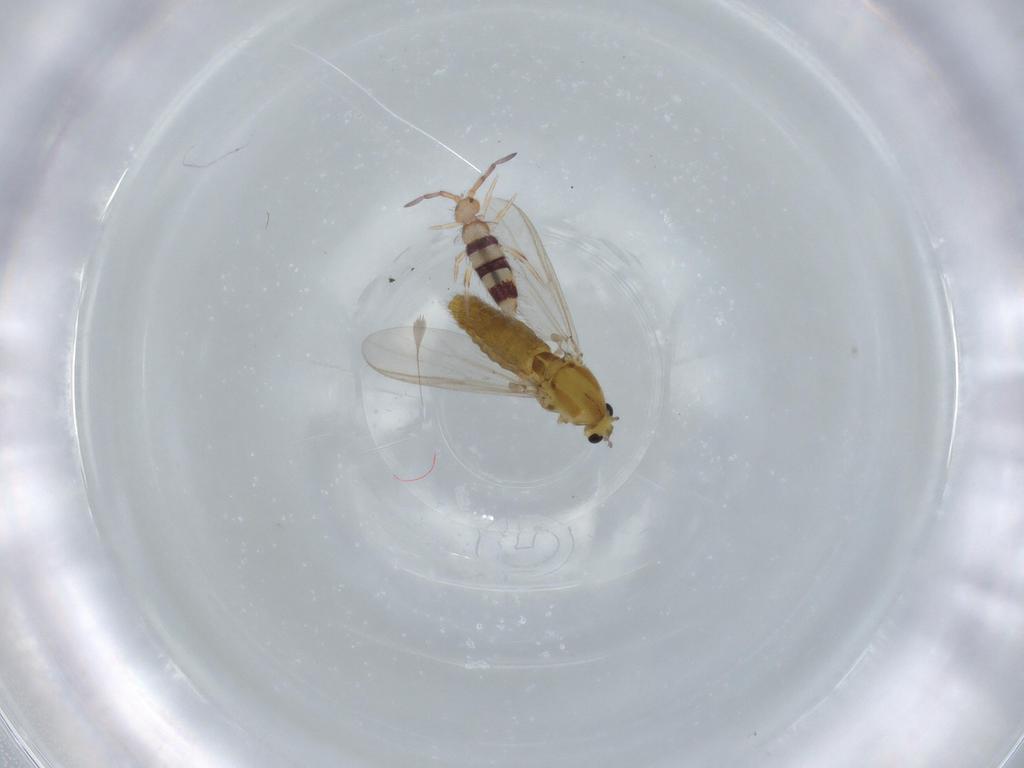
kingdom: Animalia
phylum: Arthropoda
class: Insecta
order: Diptera
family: Chironomidae
